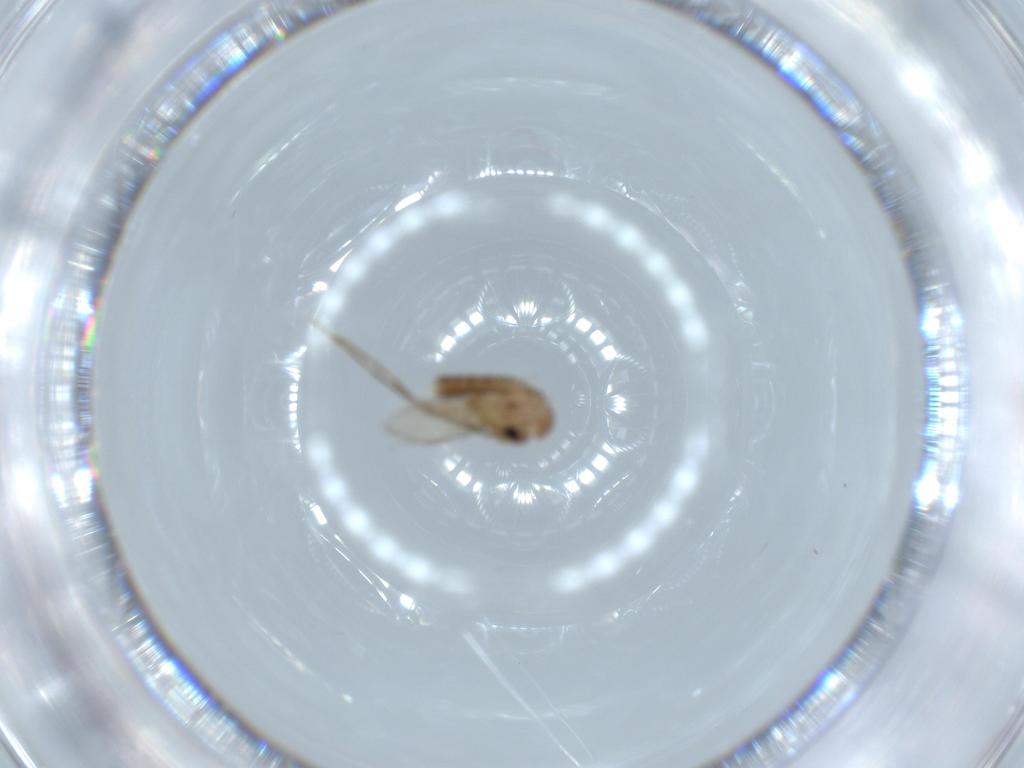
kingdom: Animalia
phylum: Arthropoda
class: Insecta
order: Diptera
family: Psychodidae
